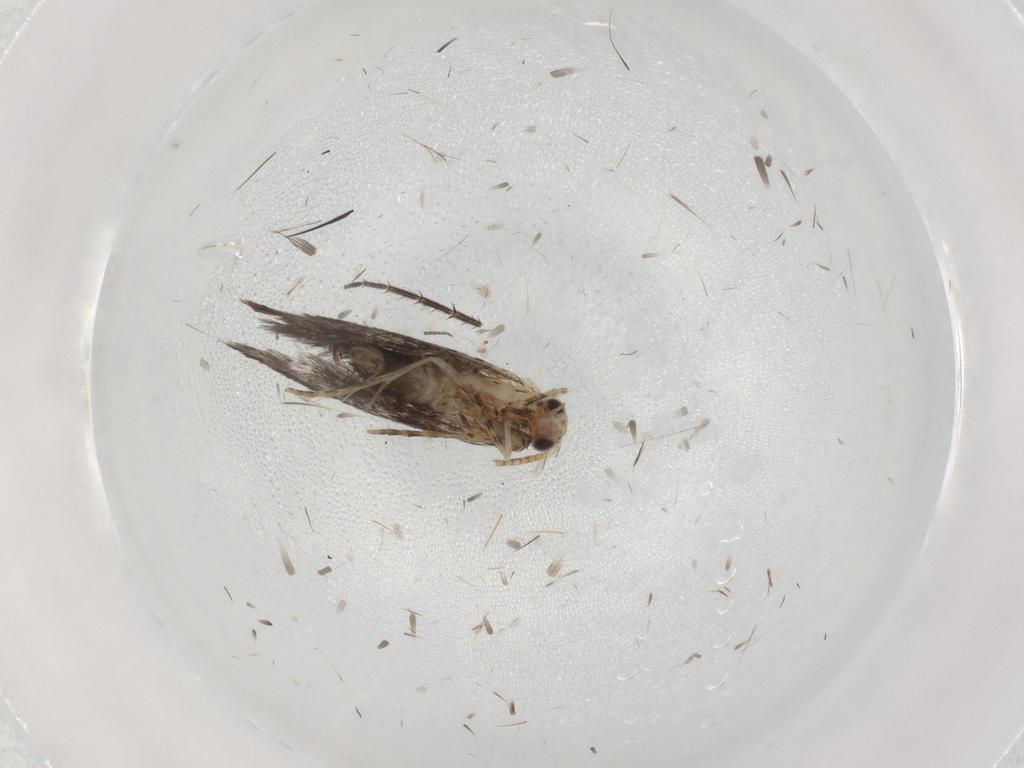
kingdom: Animalia
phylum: Arthropoda
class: Insecta
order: Lepidoptera
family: Tineidae
